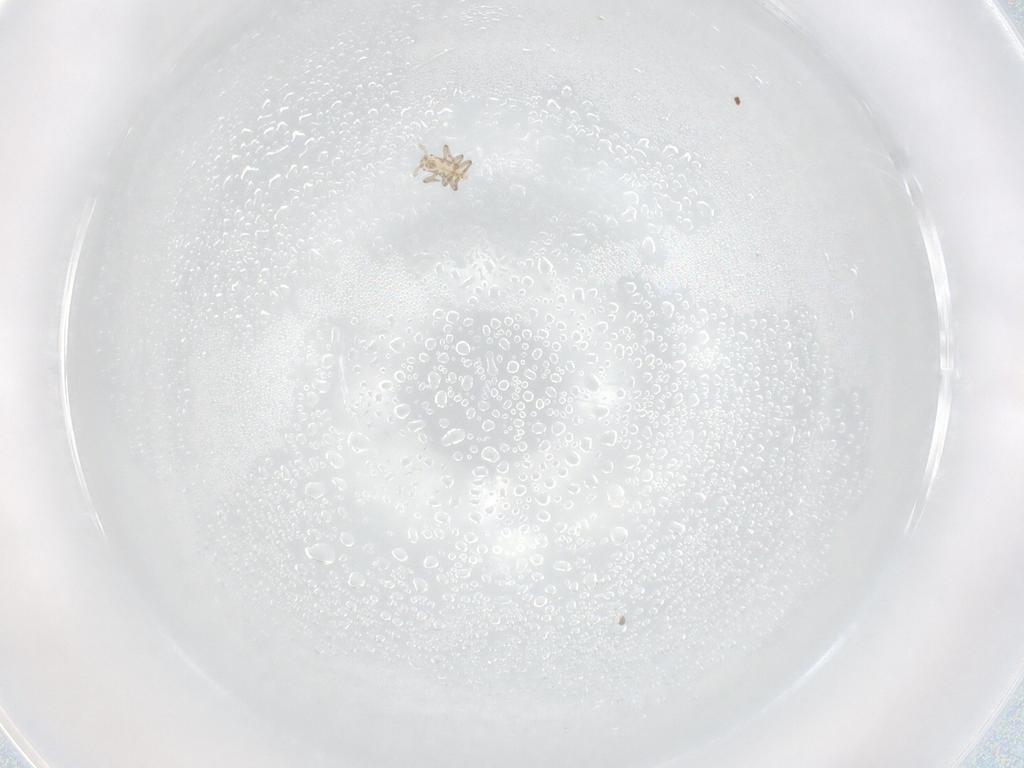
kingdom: Animalia
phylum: Arthropoda
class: Insecta
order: Hemiptera
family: Aphididae
